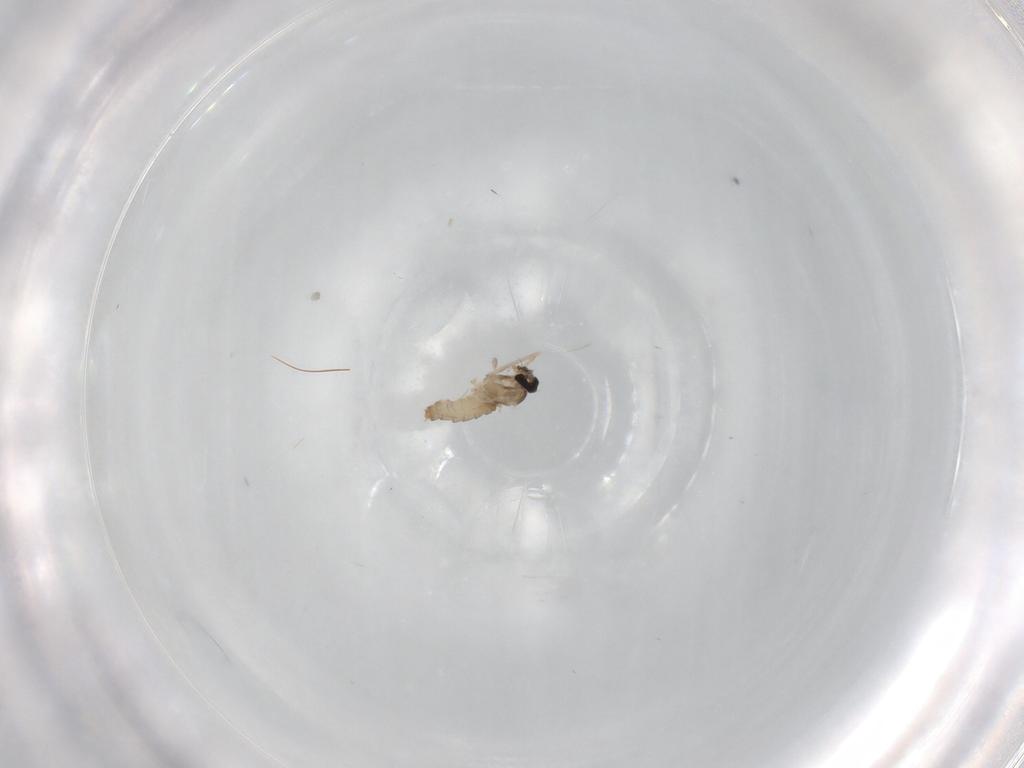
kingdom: Animalia
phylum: Arthropoda
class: Insecta
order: Diptera
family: Cecidomyiidae
